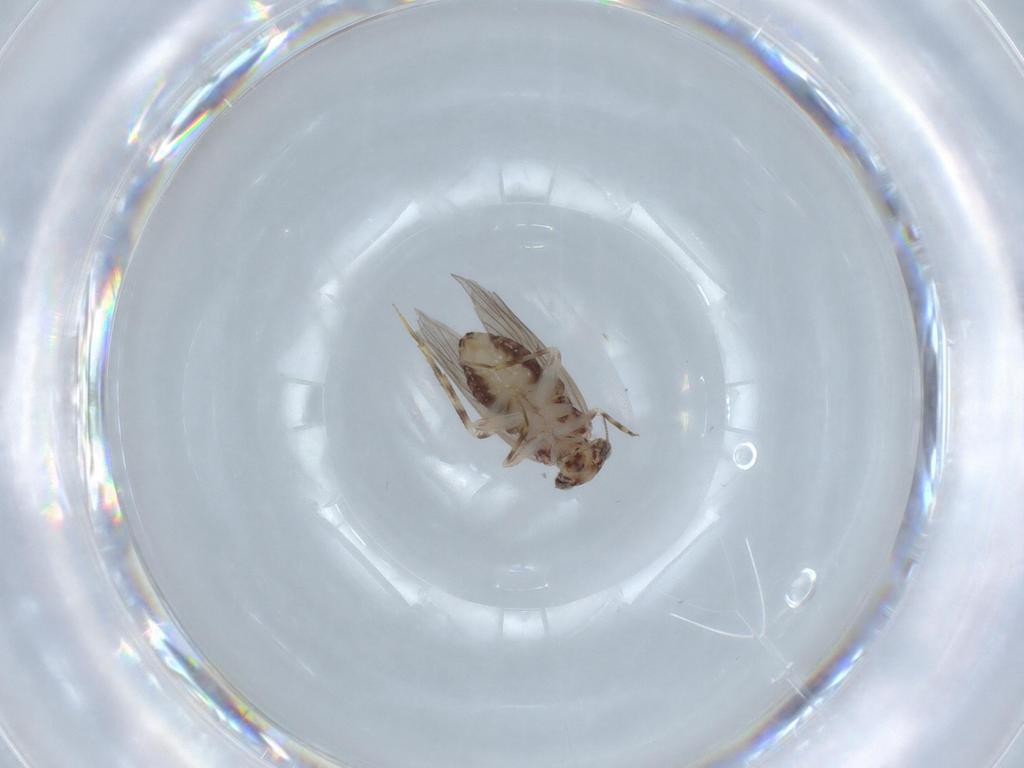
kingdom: Animalia
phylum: Arthropoda
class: Insecta
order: Psocodea
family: Lepidopsocidae
